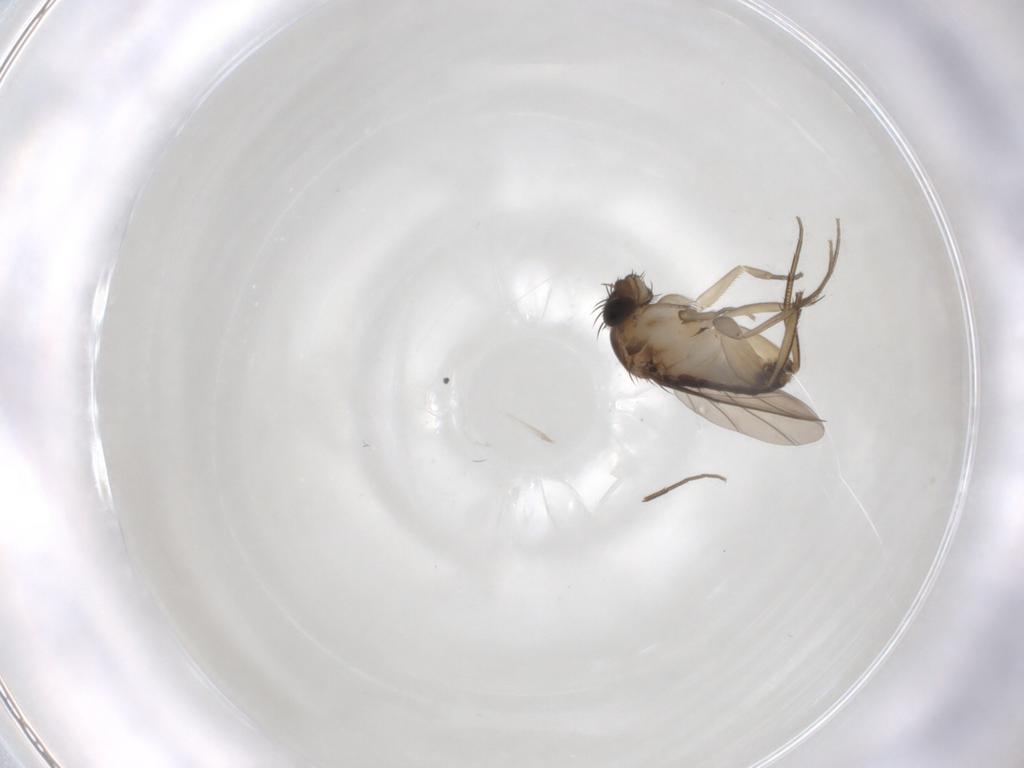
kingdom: Animalia
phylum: Arthropoda
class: Insecta
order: Diptera
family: Phoridae
